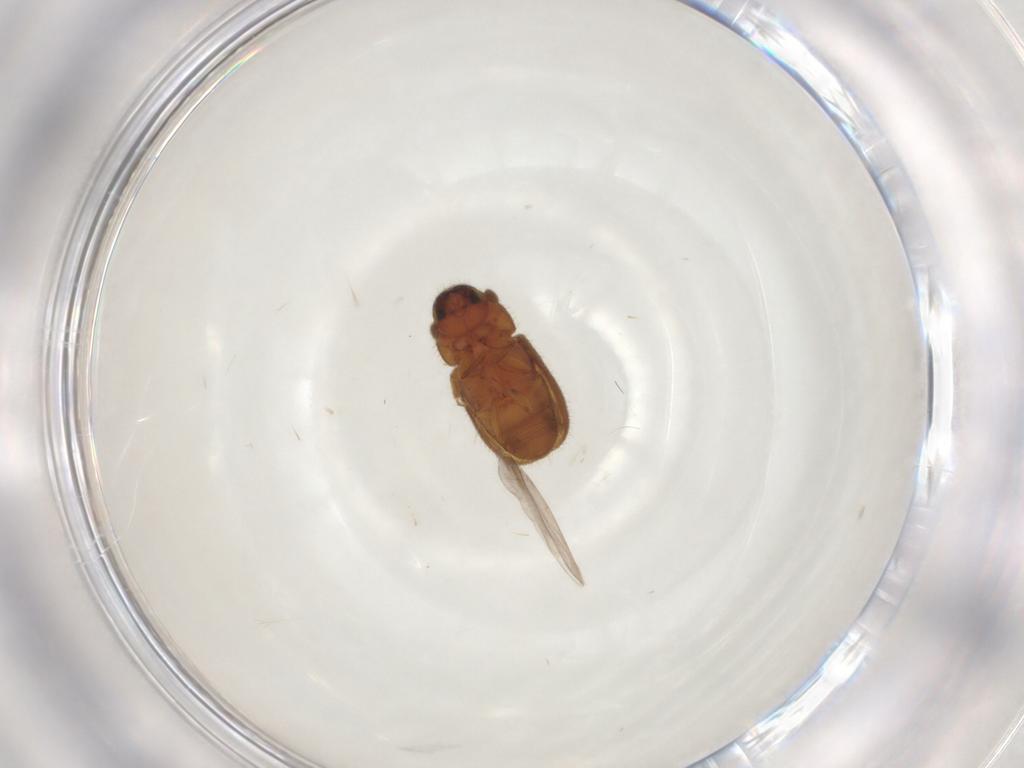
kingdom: Animalia
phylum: Arthropoda
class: Insecta
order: Coleoptera
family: Curculionidae
